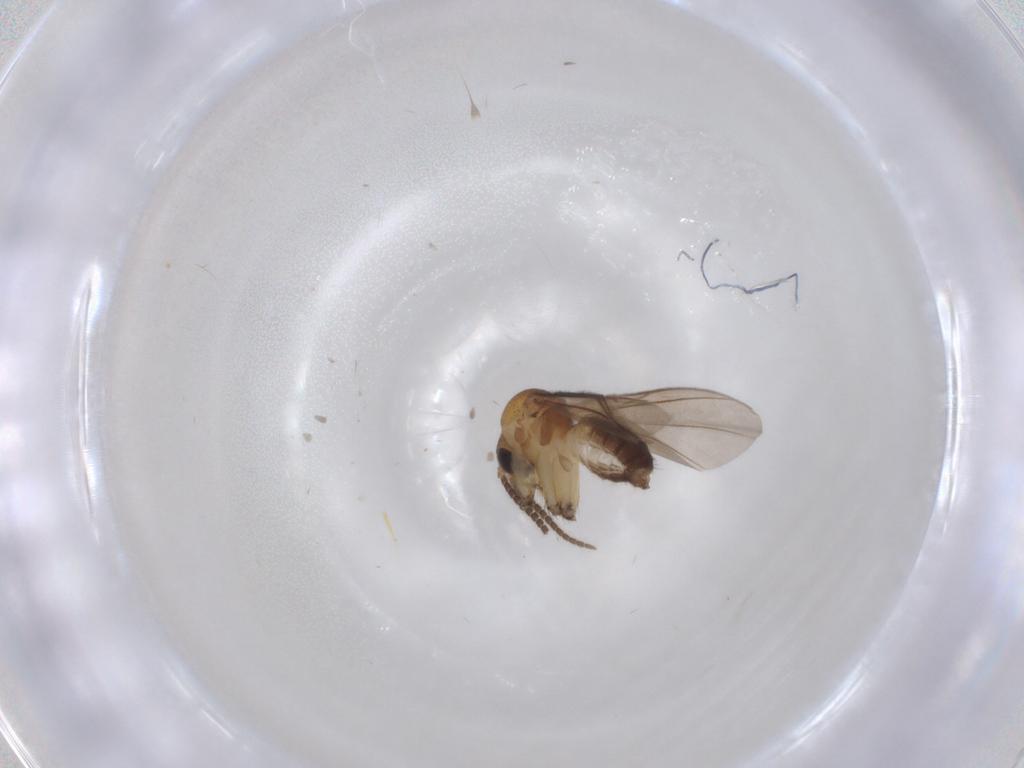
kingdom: Animalia
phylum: Arthropoda
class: Insecta
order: Diptera
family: Mycetophilidae
